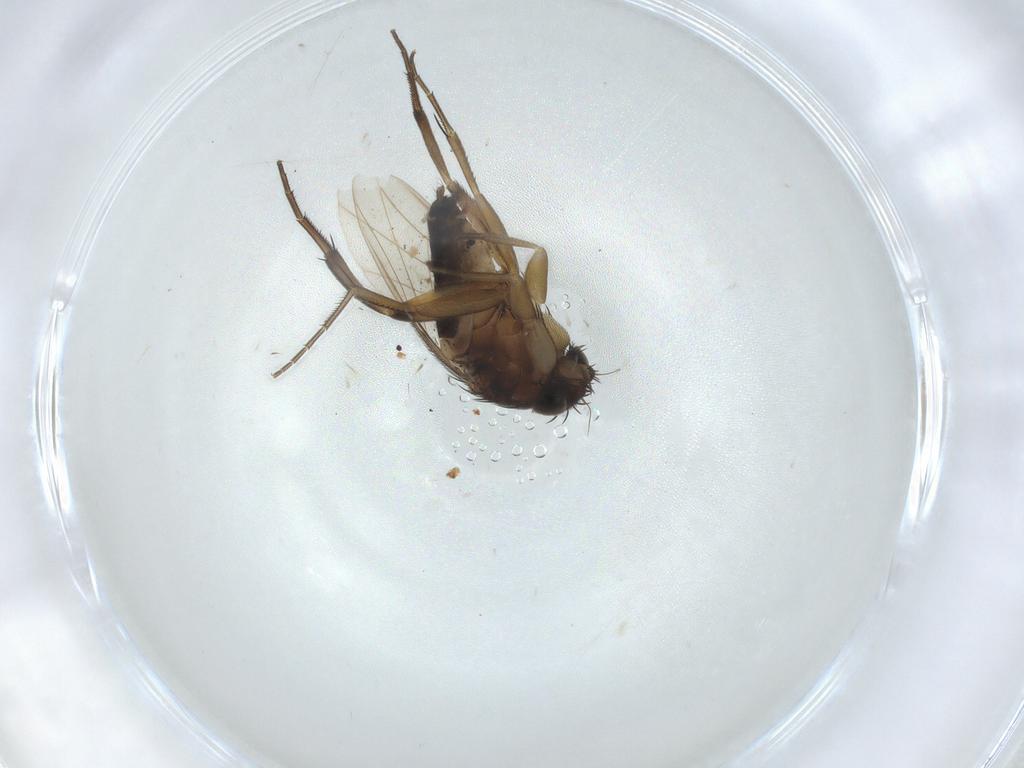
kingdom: Animalia
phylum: Arthropoda
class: Insecta
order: Diptera
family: Phoridae
